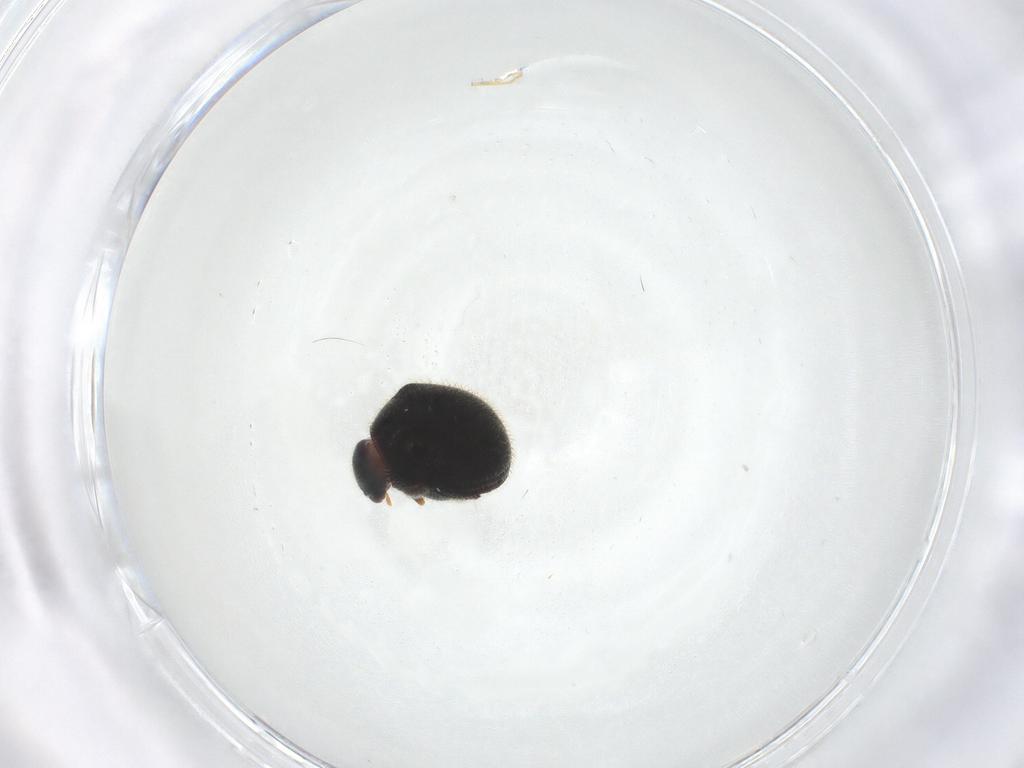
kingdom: Animalia
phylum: Arthropoda
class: Insecta
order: Coleoptera
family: Ptinidae
